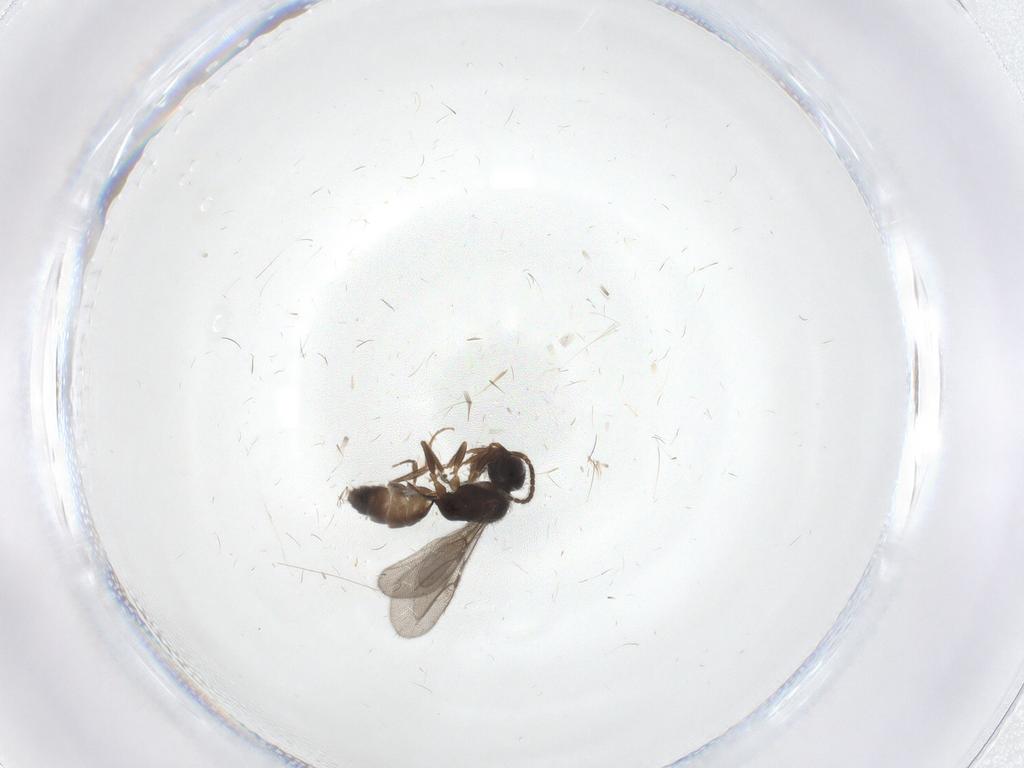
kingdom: Animalia
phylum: Arthropoda
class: Insecta
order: Hymenoptera
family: Bethylidae
